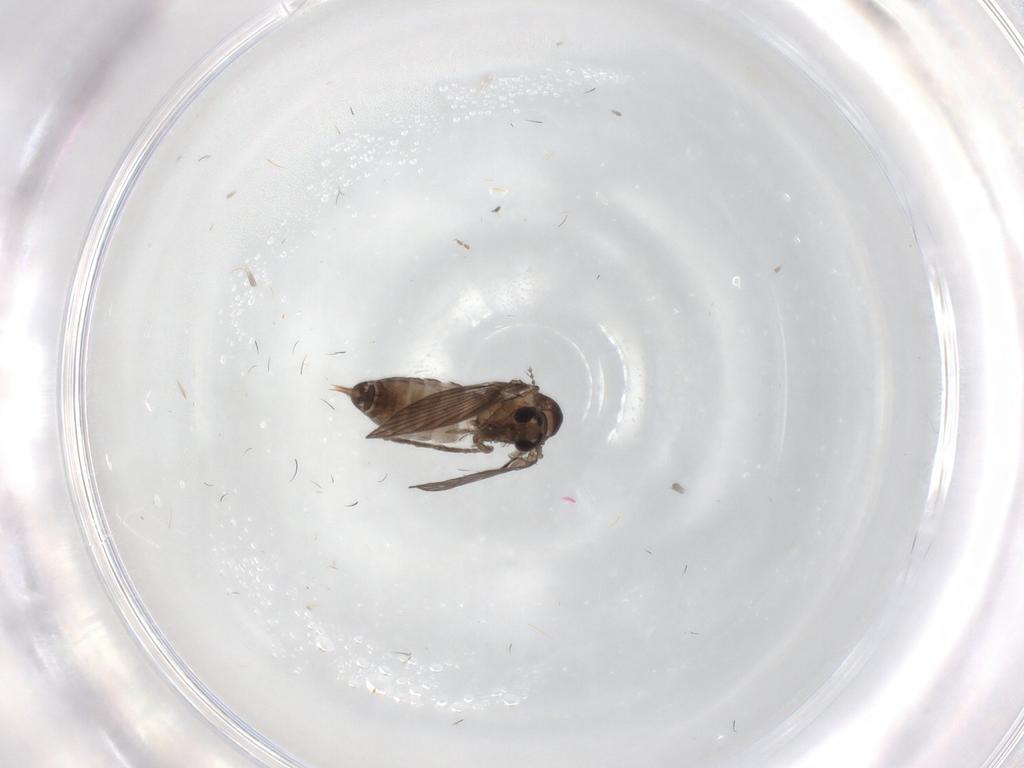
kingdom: Animalia
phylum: Arthropoda
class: Insecta
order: Diptera
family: Psychodidae
